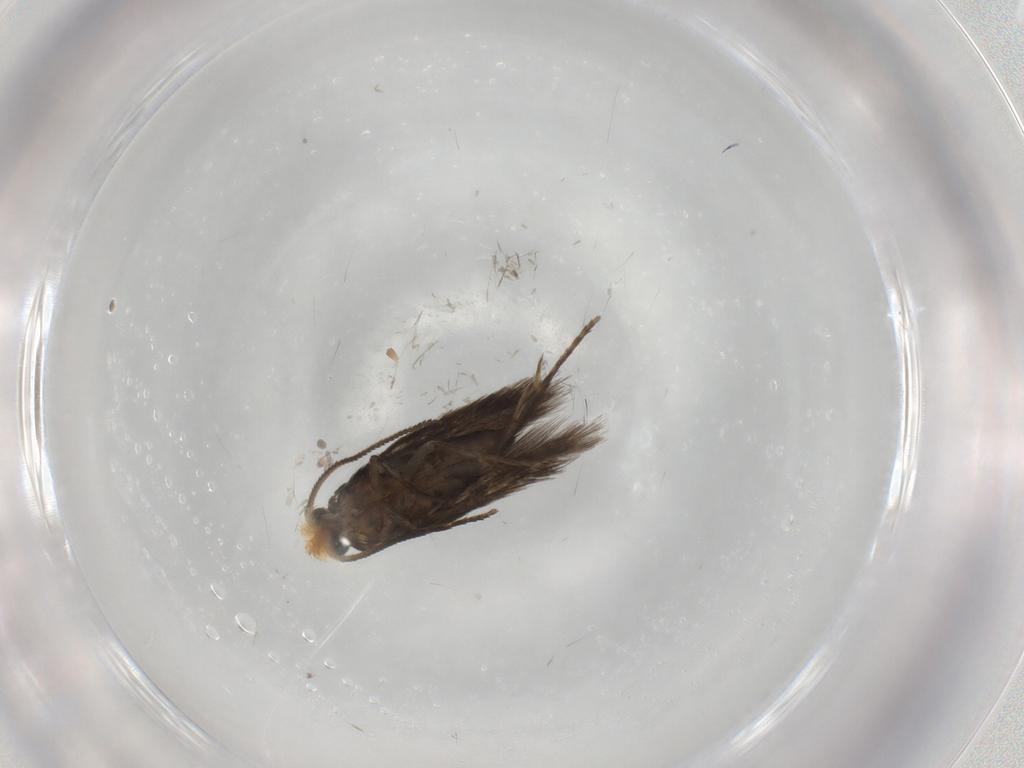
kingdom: Animalia
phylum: Arthropoda
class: Insecta
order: Lepidoptera
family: Nepticulidae
